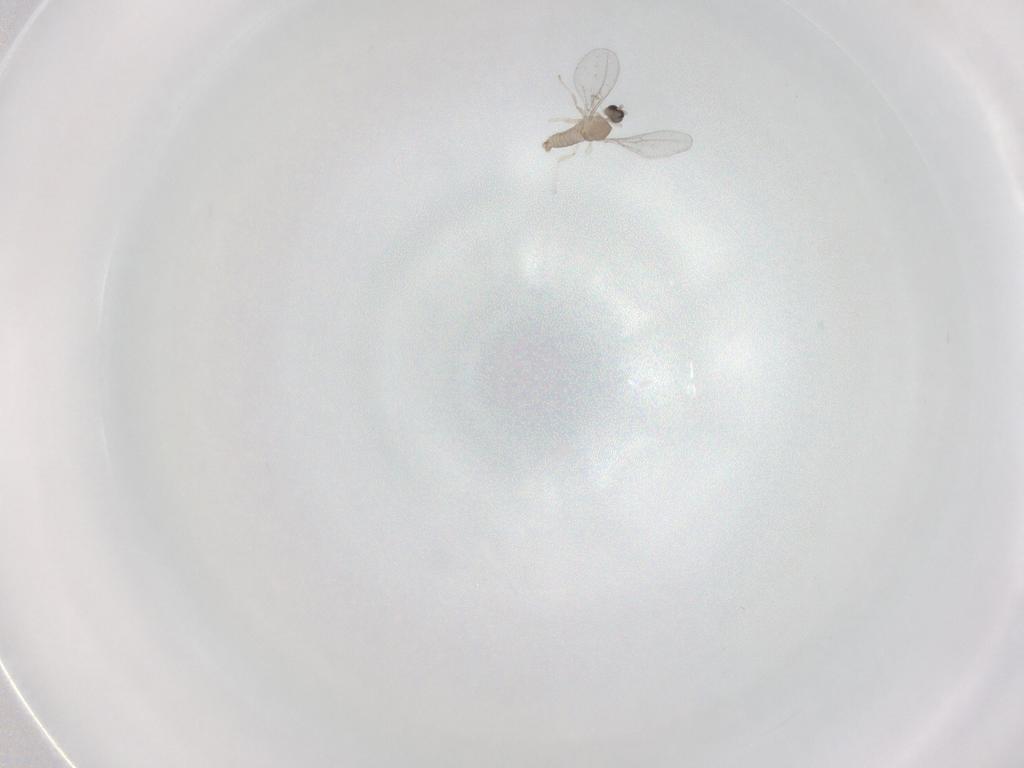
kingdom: Animalia
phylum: Arthropoda
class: Insecta
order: Diptera
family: Cecidomyiidae
